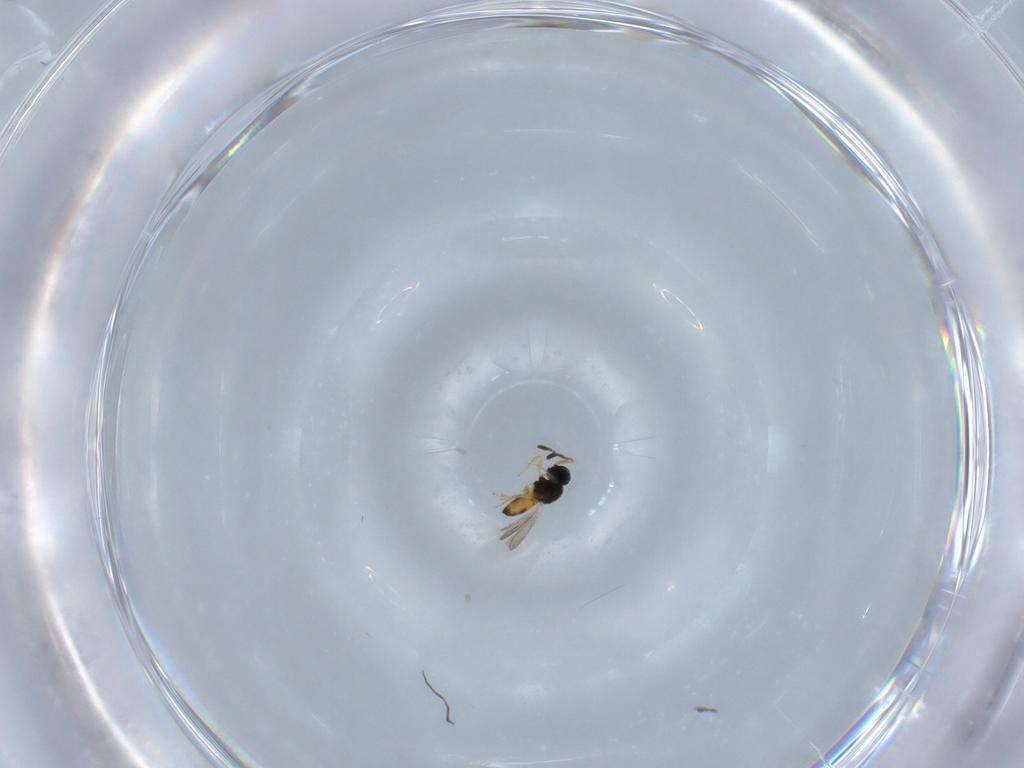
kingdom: Animalia
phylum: Arthropoda
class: Insecta
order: Hymenoptera
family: Scelionidae
